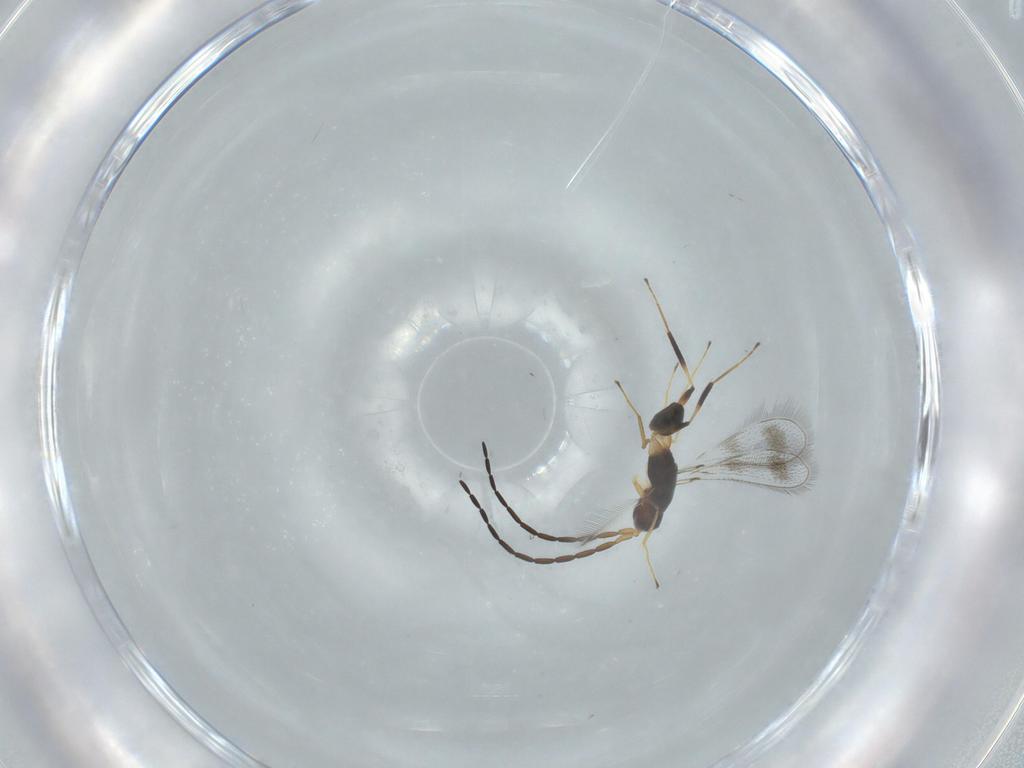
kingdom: Animalia
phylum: Arthropoda
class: Insecta
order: Hymenoptera
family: Mymaridae
